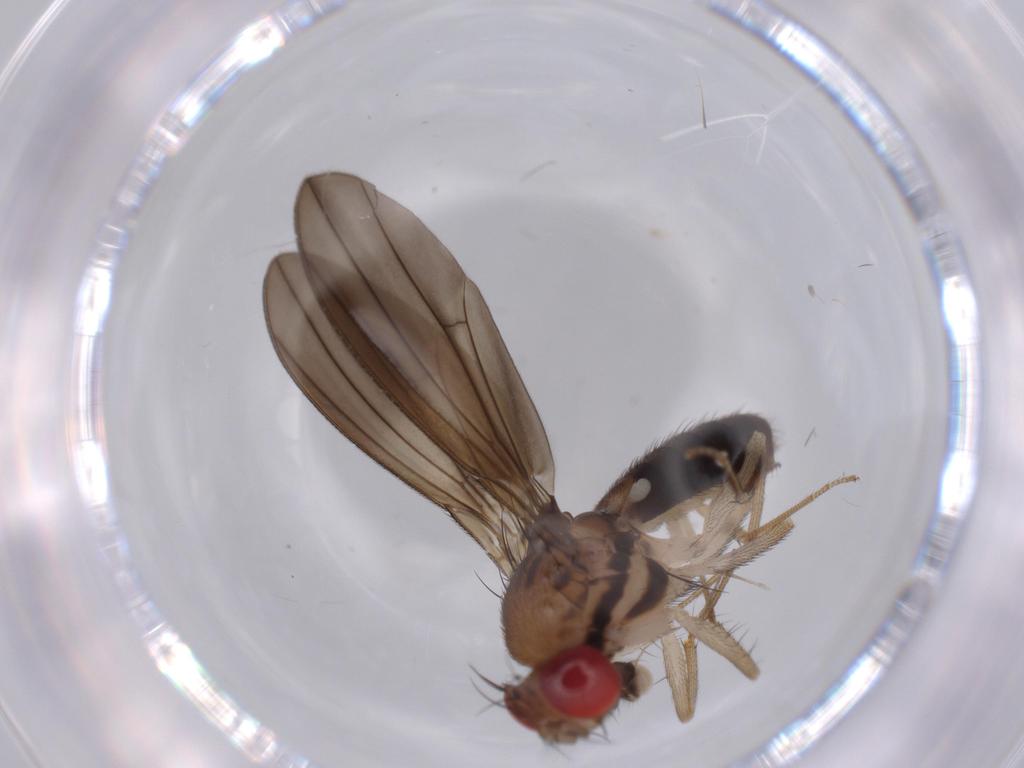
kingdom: Animalia
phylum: Arthropoda
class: Insecta
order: Diptera
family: Drosophilidae
